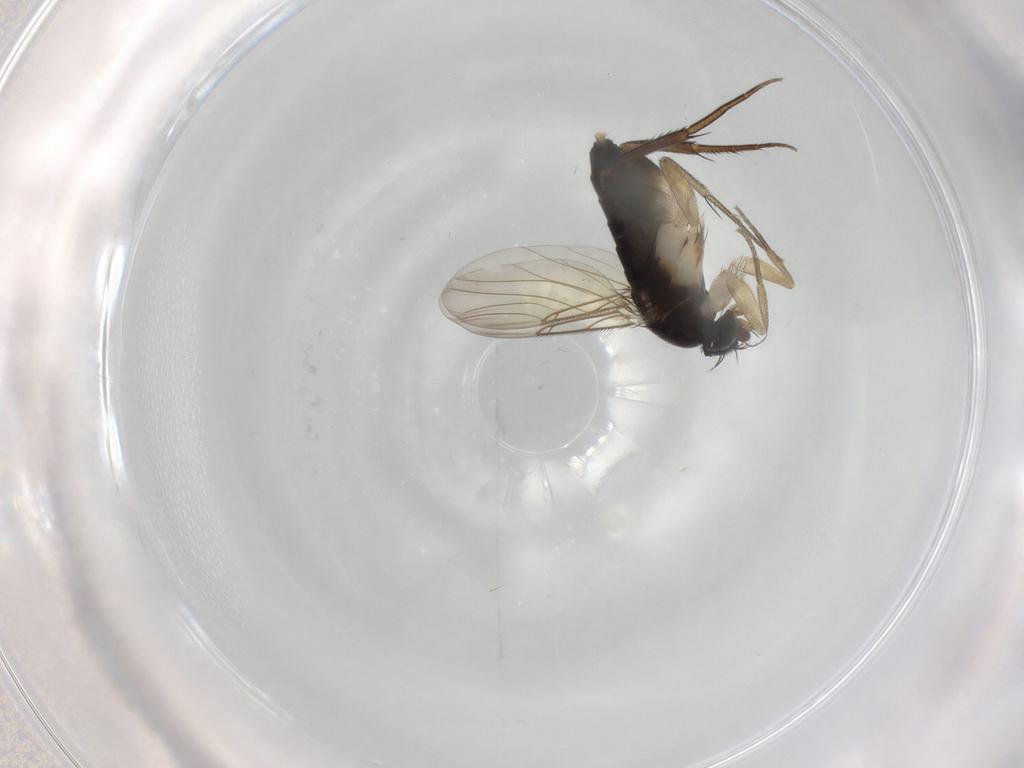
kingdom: Animalia
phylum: Arthropoda
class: Insecta
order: Diptera
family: Phoridae
